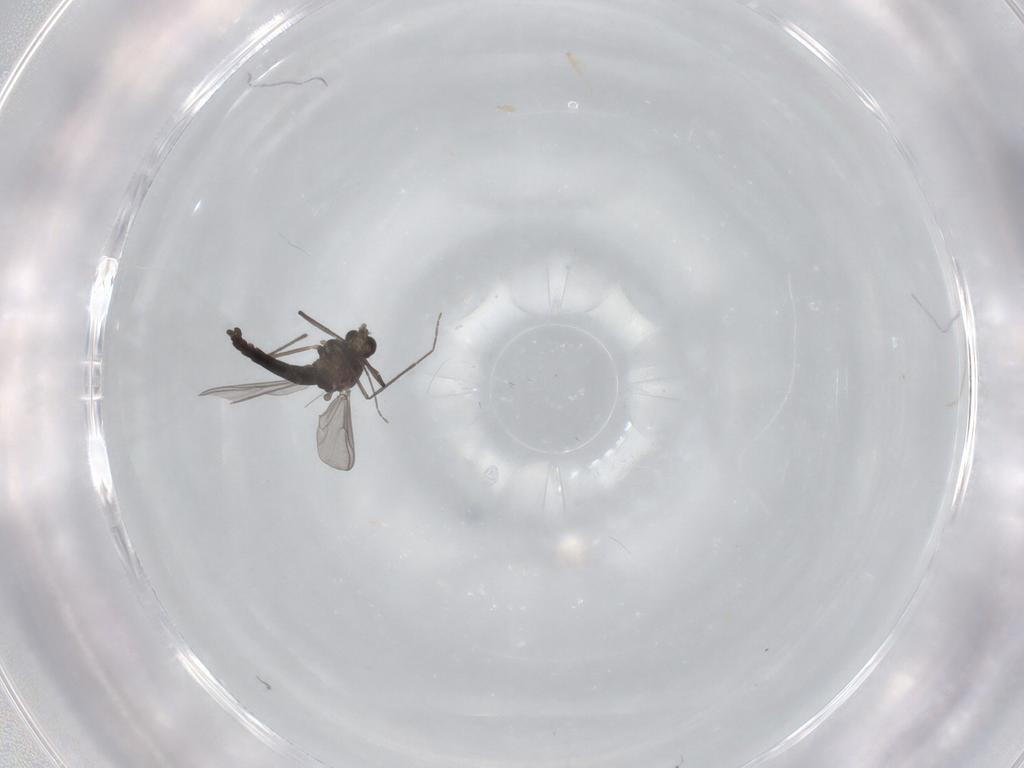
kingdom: Animalia
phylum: Arthropoda
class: Insecta
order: Diptera
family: Chironomidae
